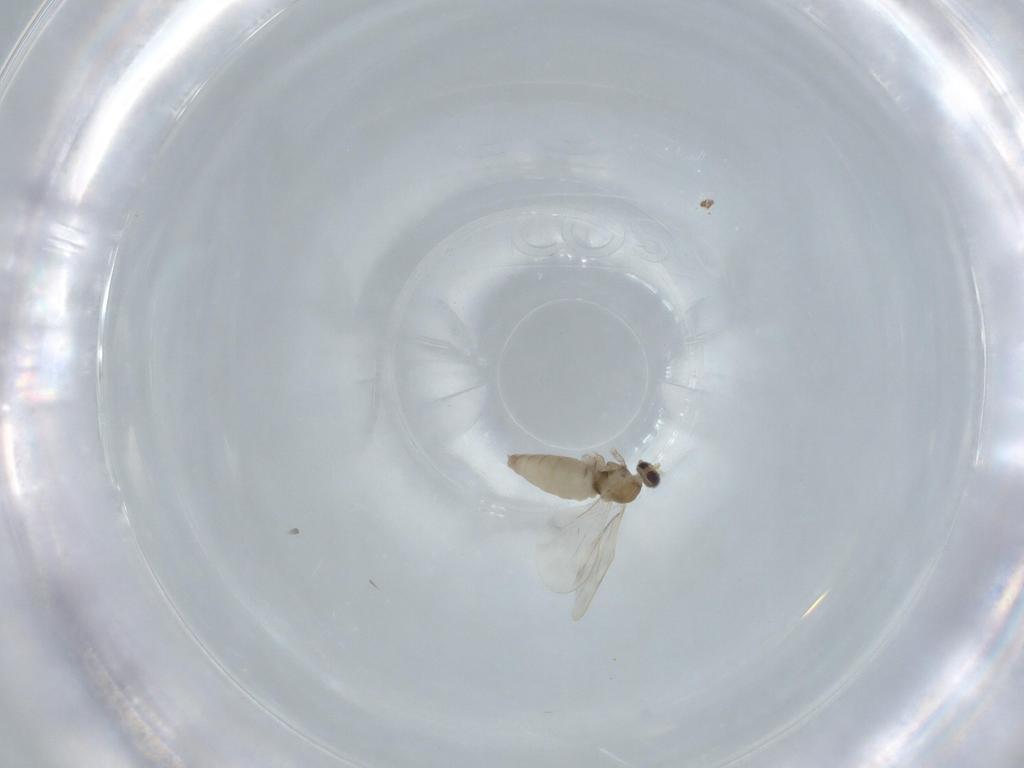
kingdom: Animalia
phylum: Arthropoda
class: Insecta
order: Diptera
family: Cecidomyiidae
